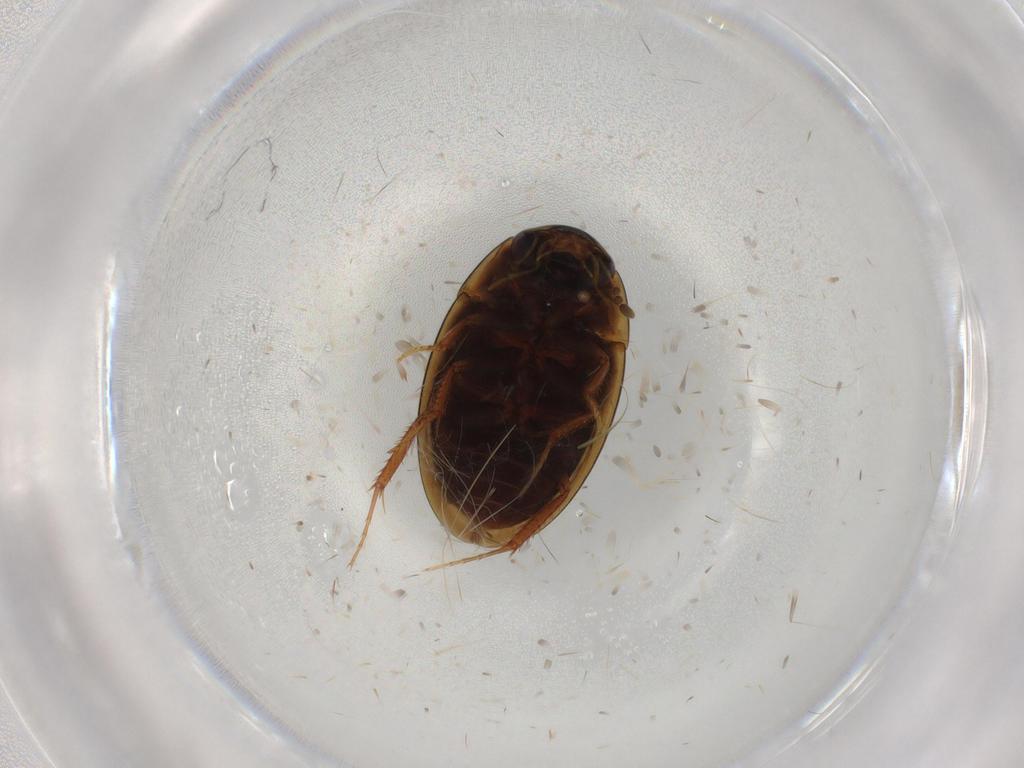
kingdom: Animalia
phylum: Arthropoda
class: Insecta
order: Coleoptera
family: Hydrophilidae
